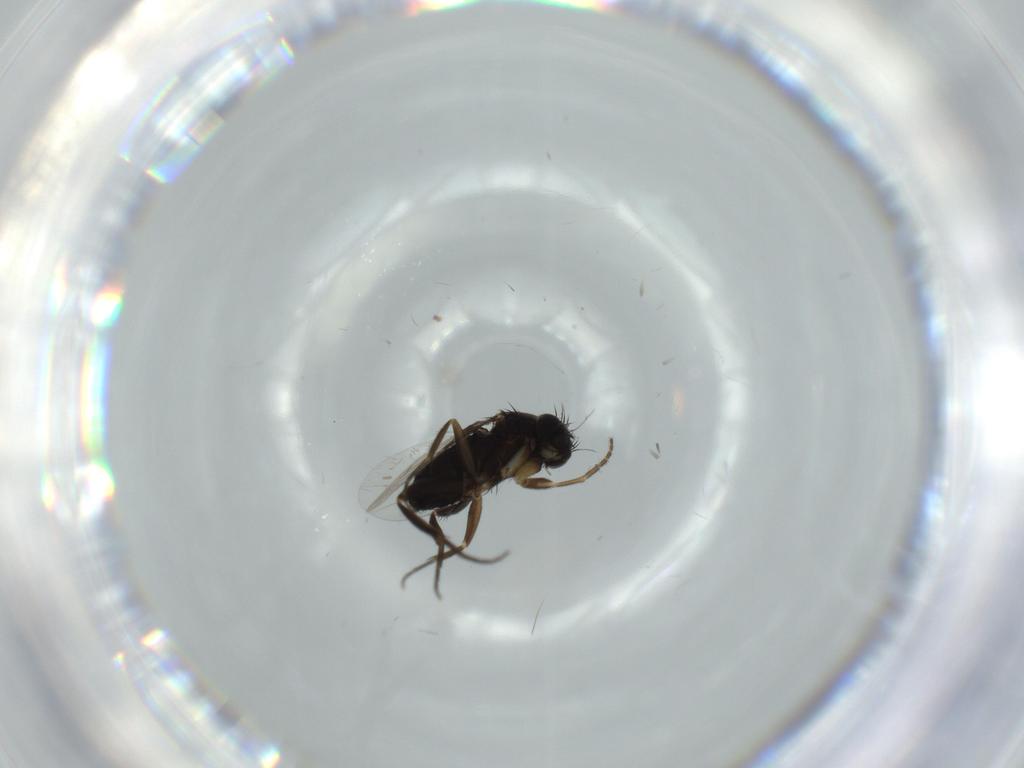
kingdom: Animalia
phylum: Arthropoda
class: Insecta
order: Diptera
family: Phoridae
